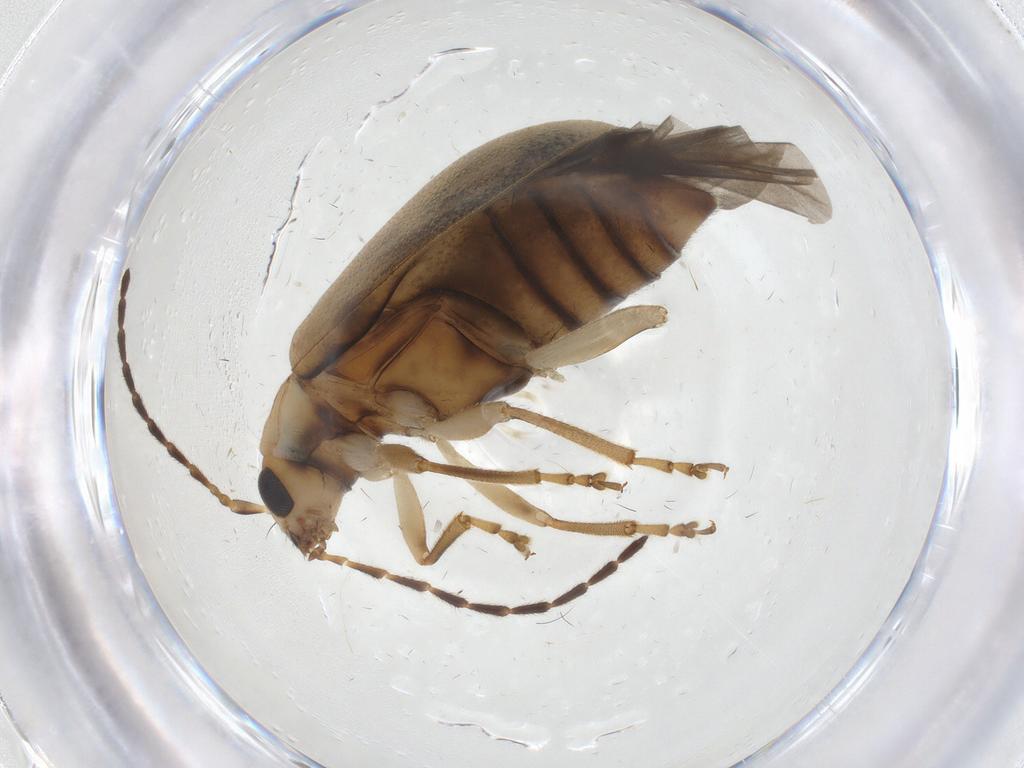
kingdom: Animalia
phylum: Arthropoda
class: Insecta
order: Coleoptera
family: Chrysomelidae
